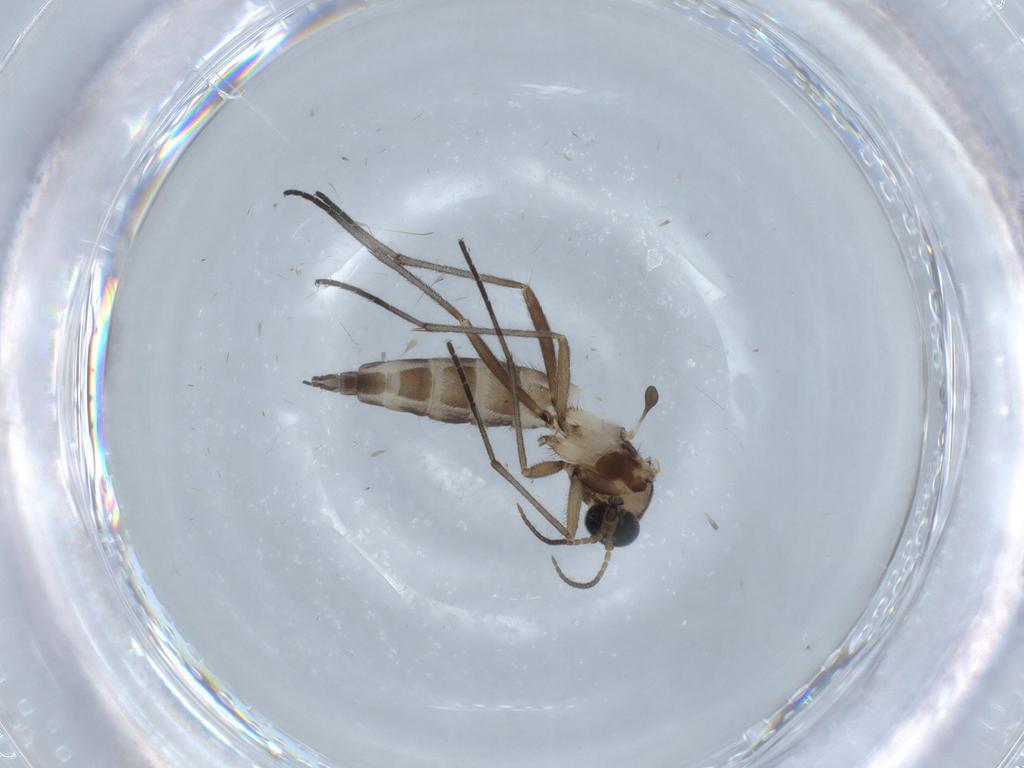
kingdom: Animalia
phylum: Arthropoda
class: Insecta
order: Diptera
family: Sciaridae
